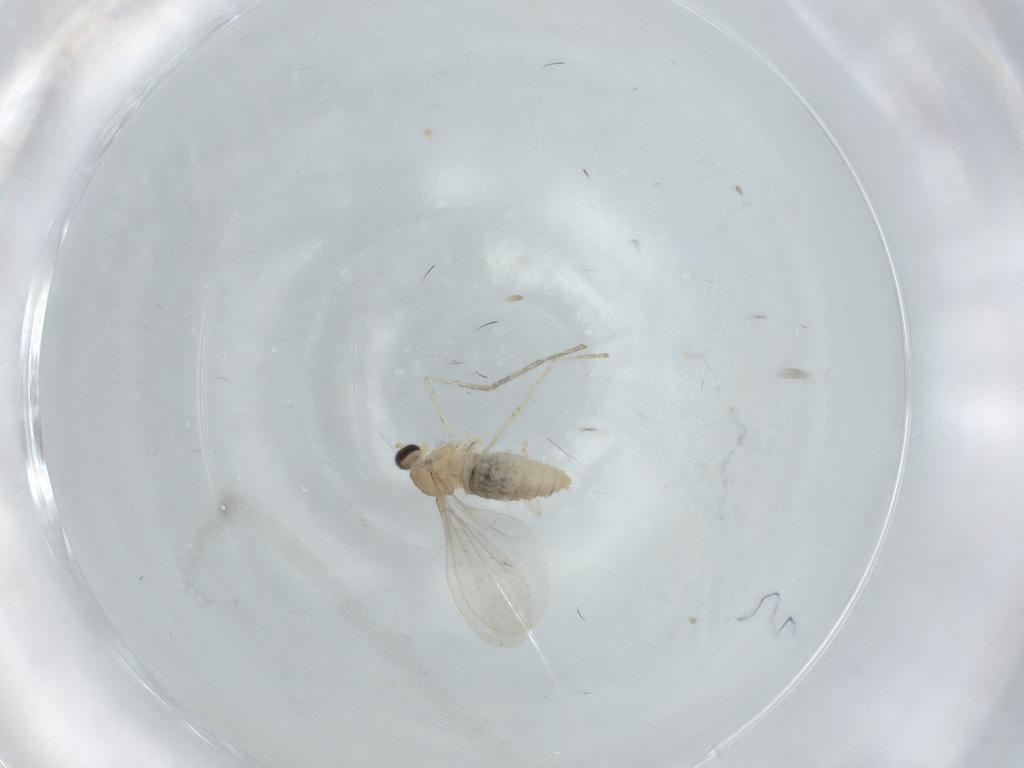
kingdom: Animalia
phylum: Arthropoda
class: Insecta
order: Diptera
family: Cecidomyiidae
